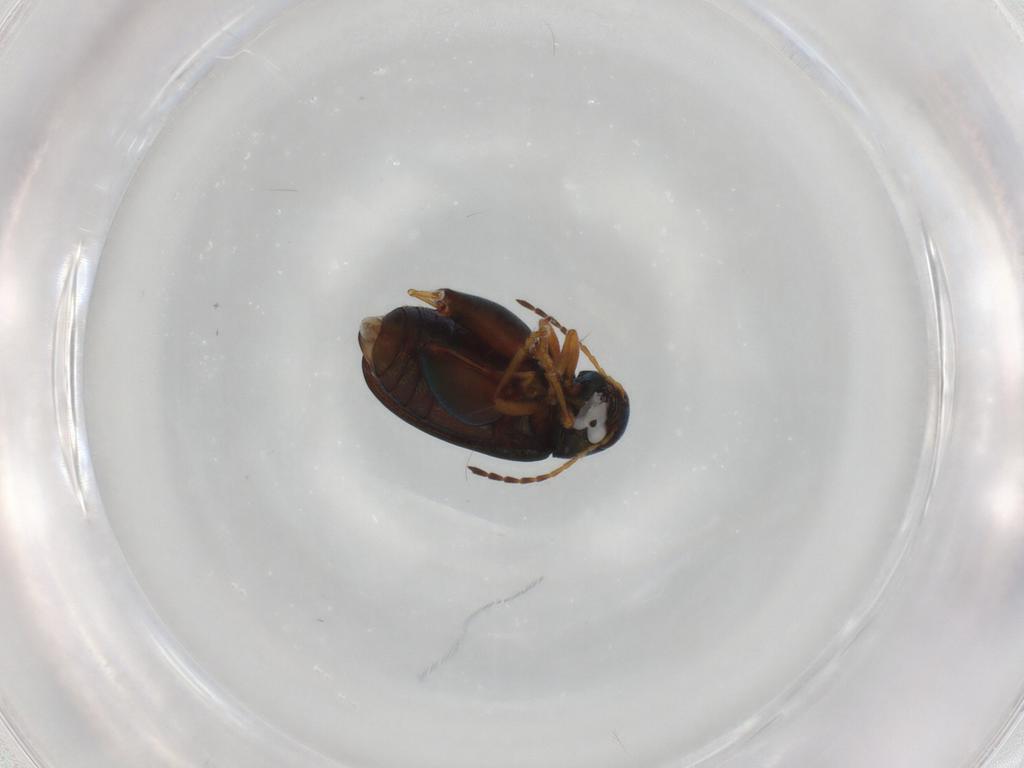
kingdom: Animalia
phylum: Arthropoda
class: Insecta
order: Coleoptera
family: Chrysomelidae
